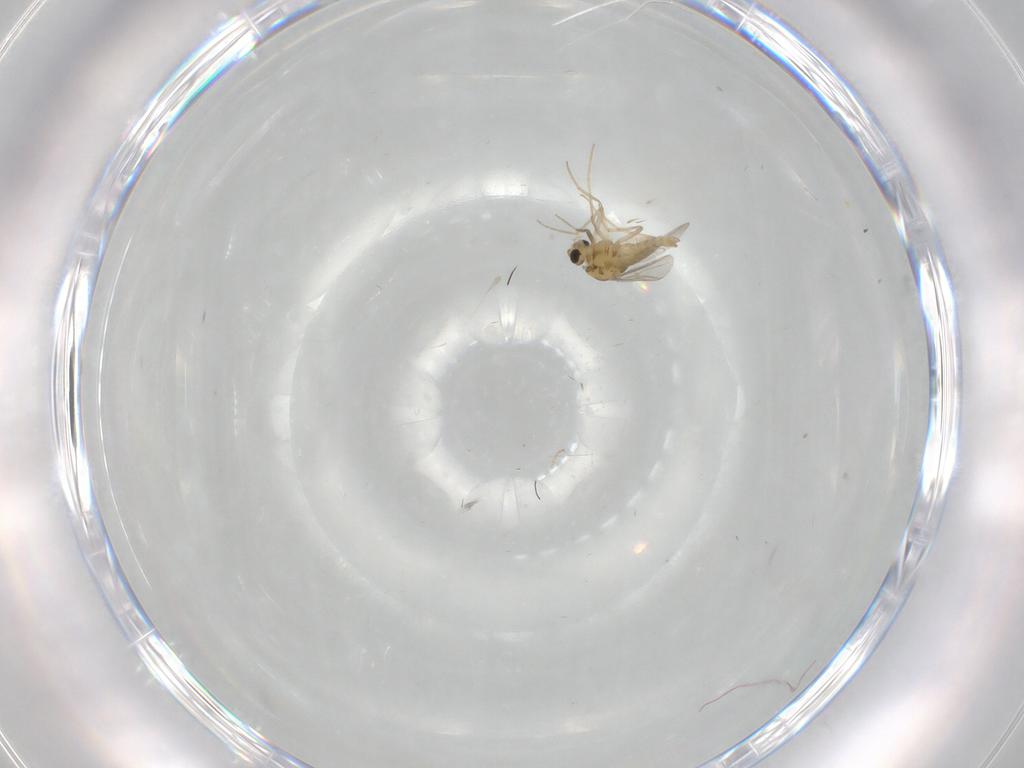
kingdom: Animalia
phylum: Arthropoda
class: Insecta
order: Diptera
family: Chironomidae
